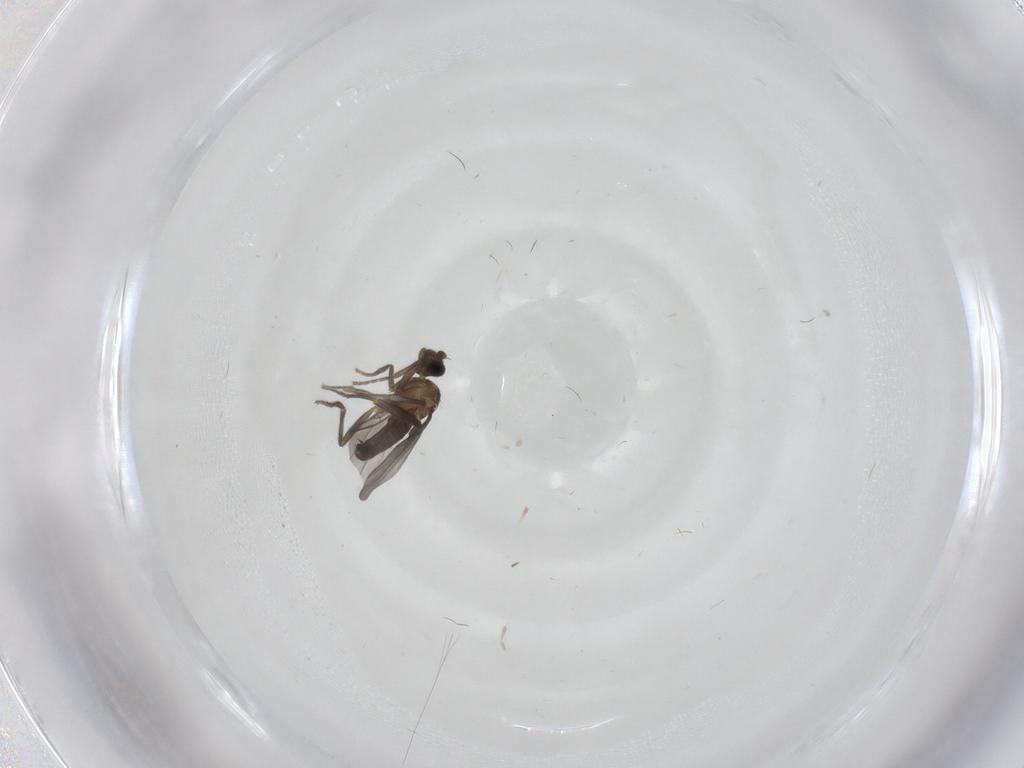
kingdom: Animalia
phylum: Arthropoda
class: Insecta
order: Diptera
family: Phoridae
